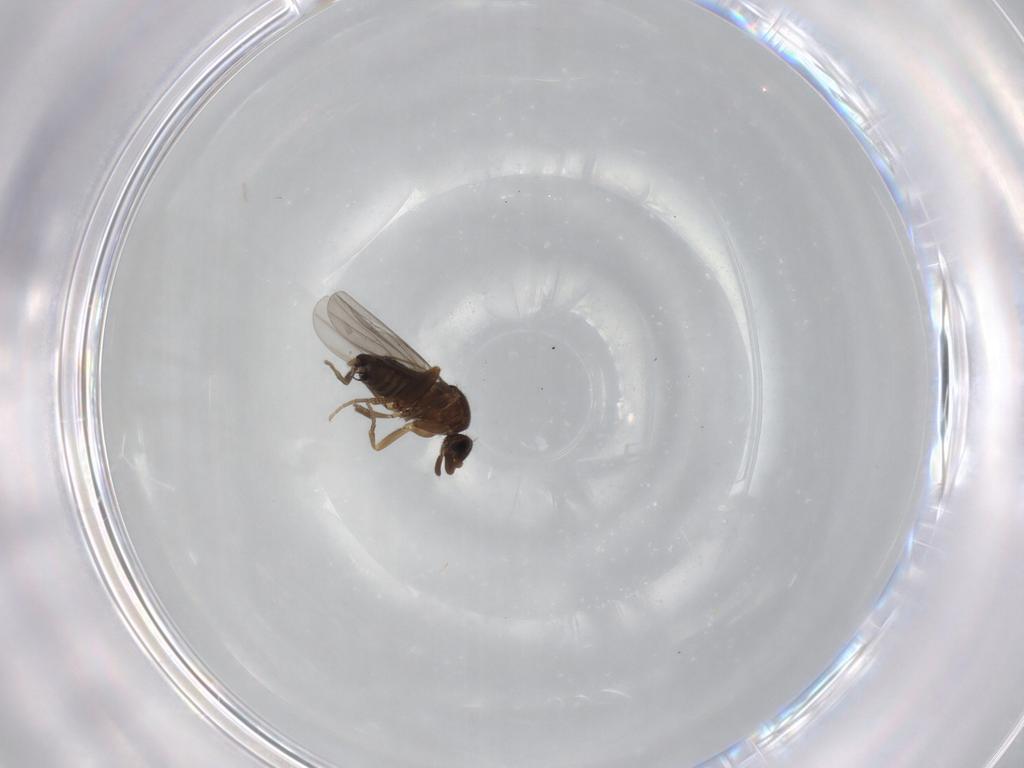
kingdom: Animalia
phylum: Arthropoda
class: Insecta
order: Diptera
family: Phoridae
